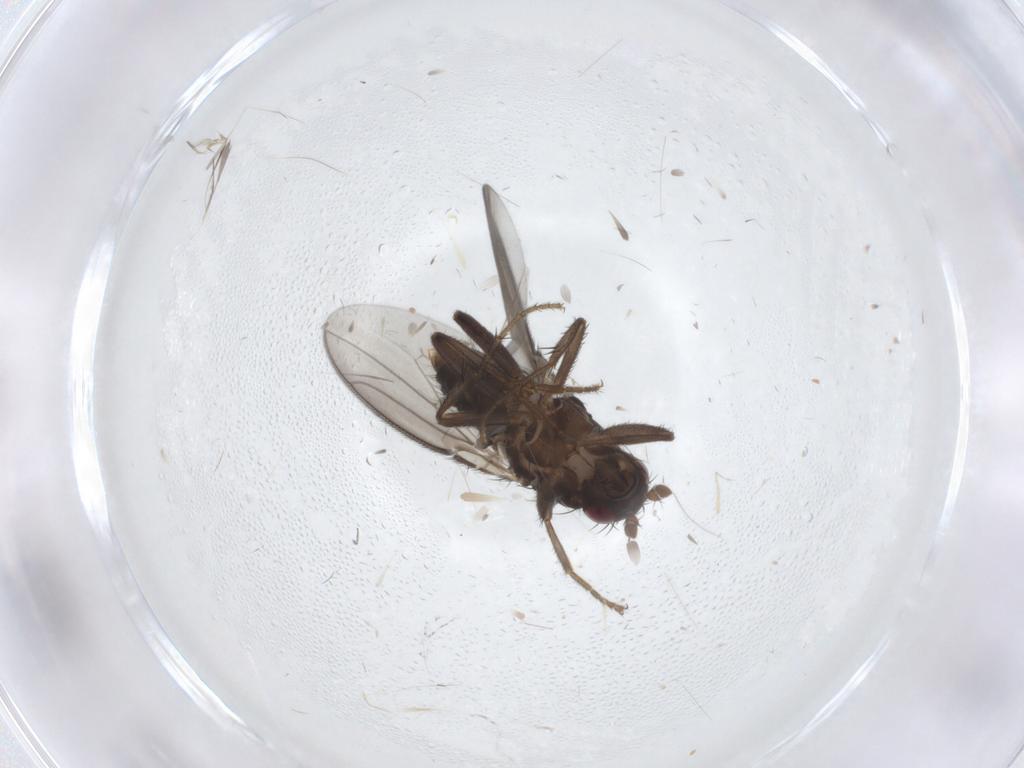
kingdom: Animalia
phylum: Arthropoda
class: Insecta
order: Diptera
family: Cecidomyiidae
